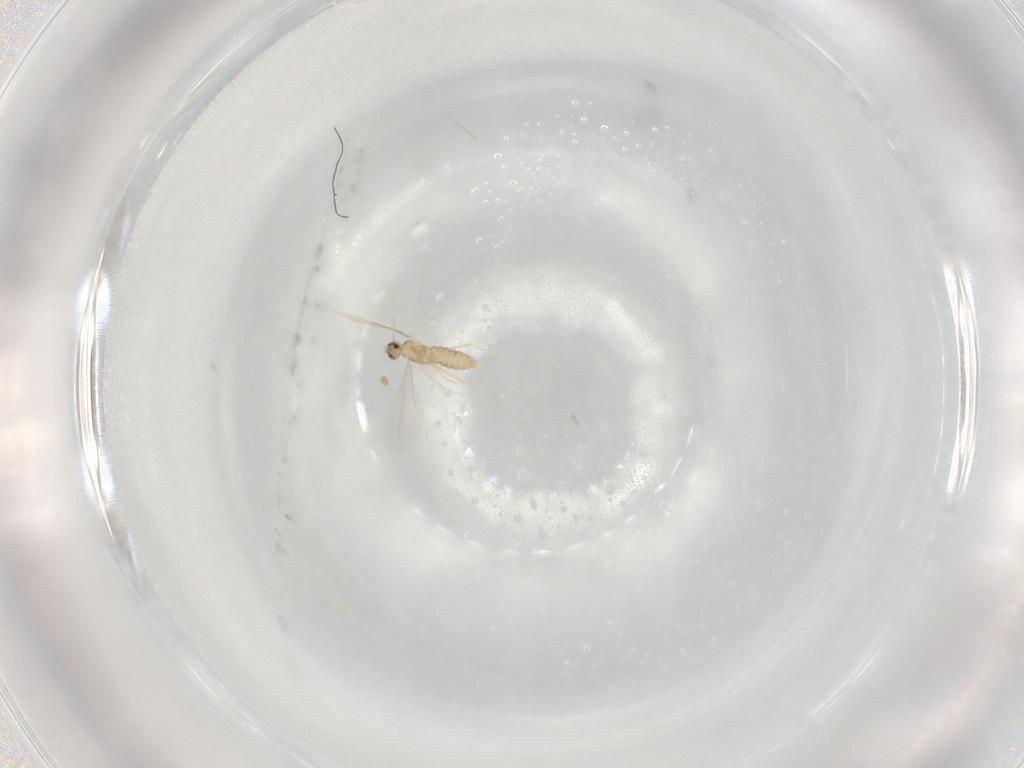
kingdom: Animalia
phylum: Arthropoda
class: Insecta
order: Diptera
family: Cecidomyiidae
